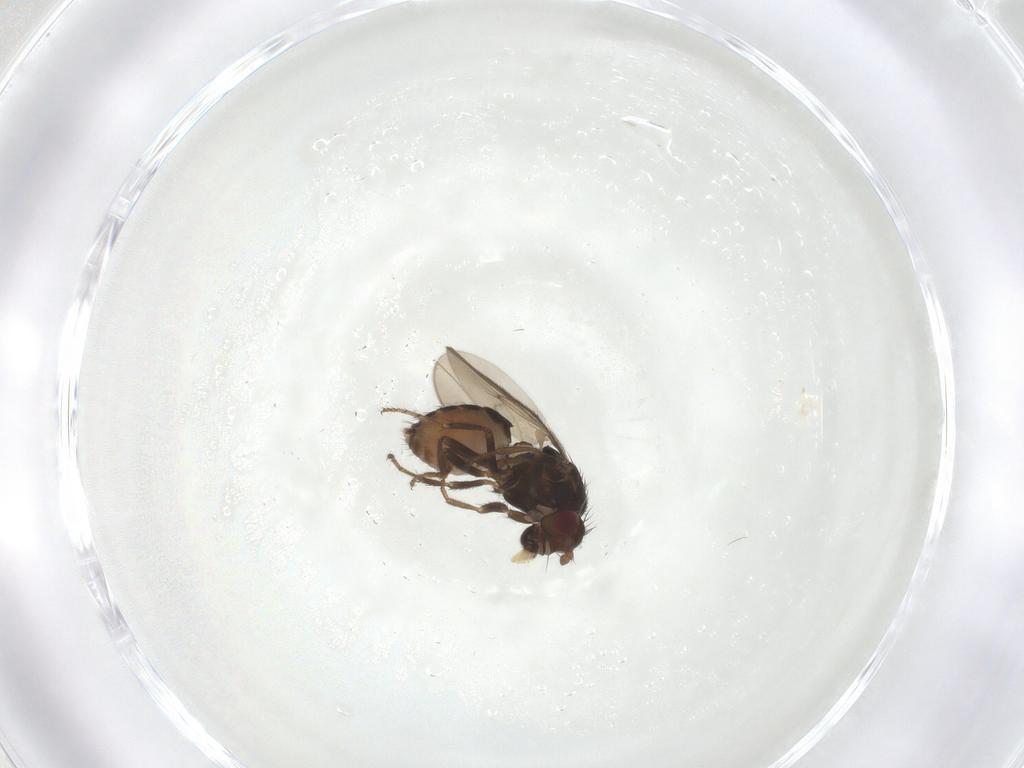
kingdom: Animalia
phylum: Arthropoda
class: Insecta
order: Diptera
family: Sphaeroceridae
